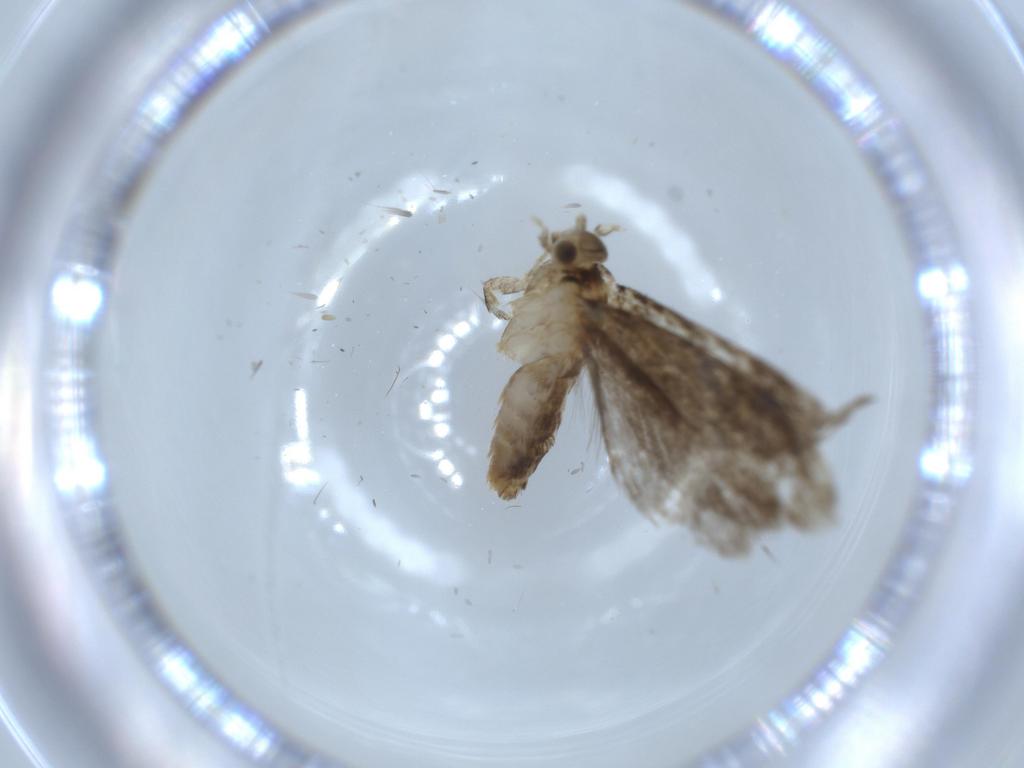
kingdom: Animalia
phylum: Arthropoda
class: Insecta
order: Lepidoptera
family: Tineidae
